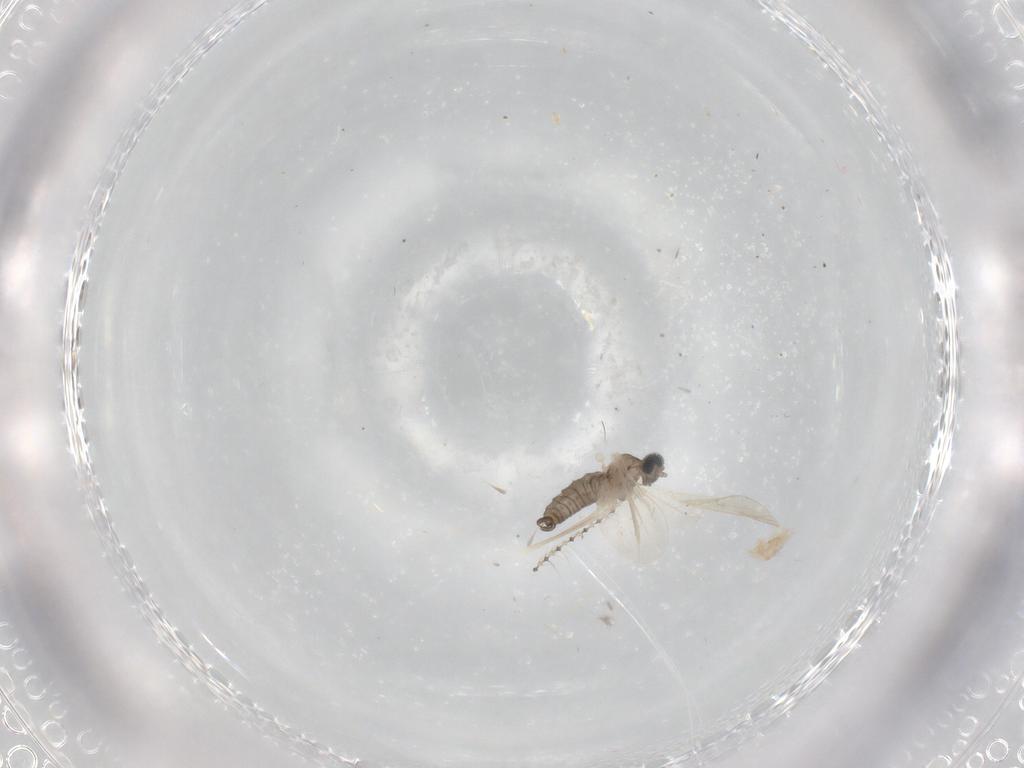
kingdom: Animalia
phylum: Arthropoda
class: Insecta
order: Diptera
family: Cecidomyiidae
